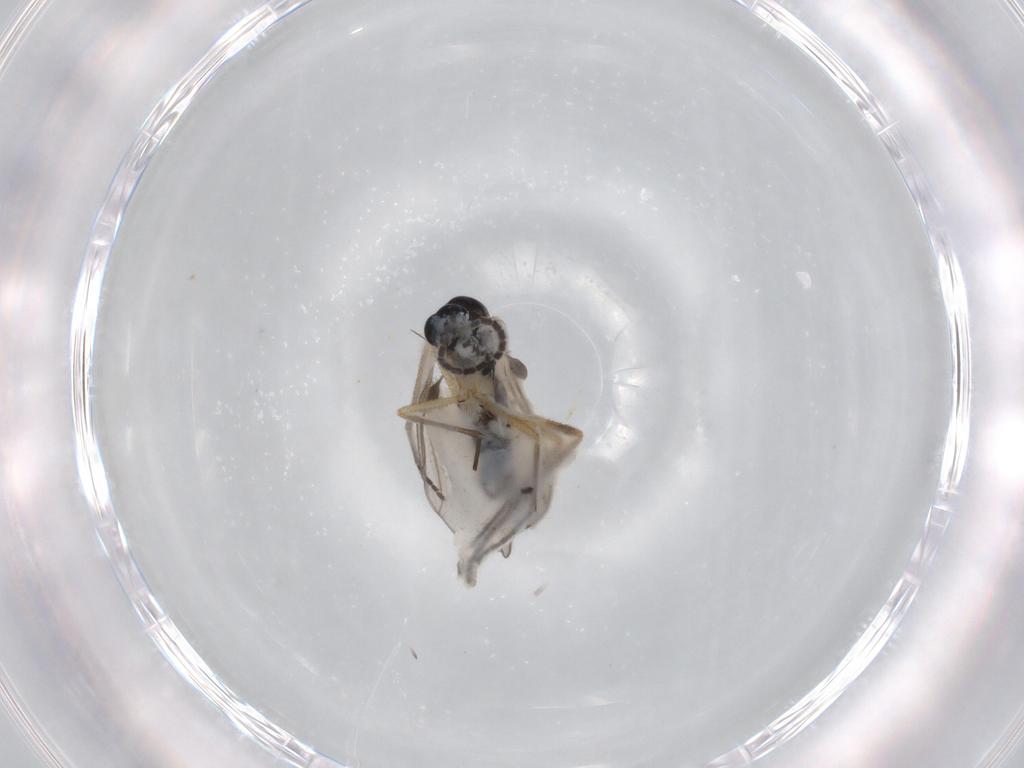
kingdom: Animalia
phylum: Arthropoda
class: Insecta
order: Diptera
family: Sciaridae
